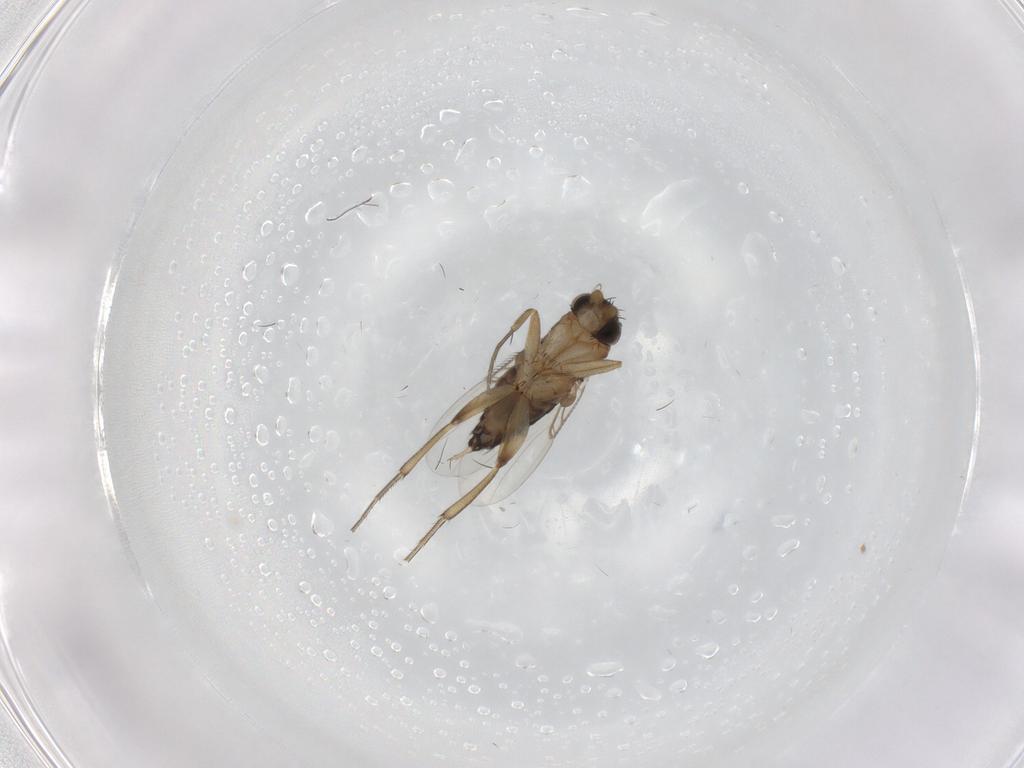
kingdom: Animalia
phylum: Arthropoda
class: Insecta
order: Diptera
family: Phoridae
